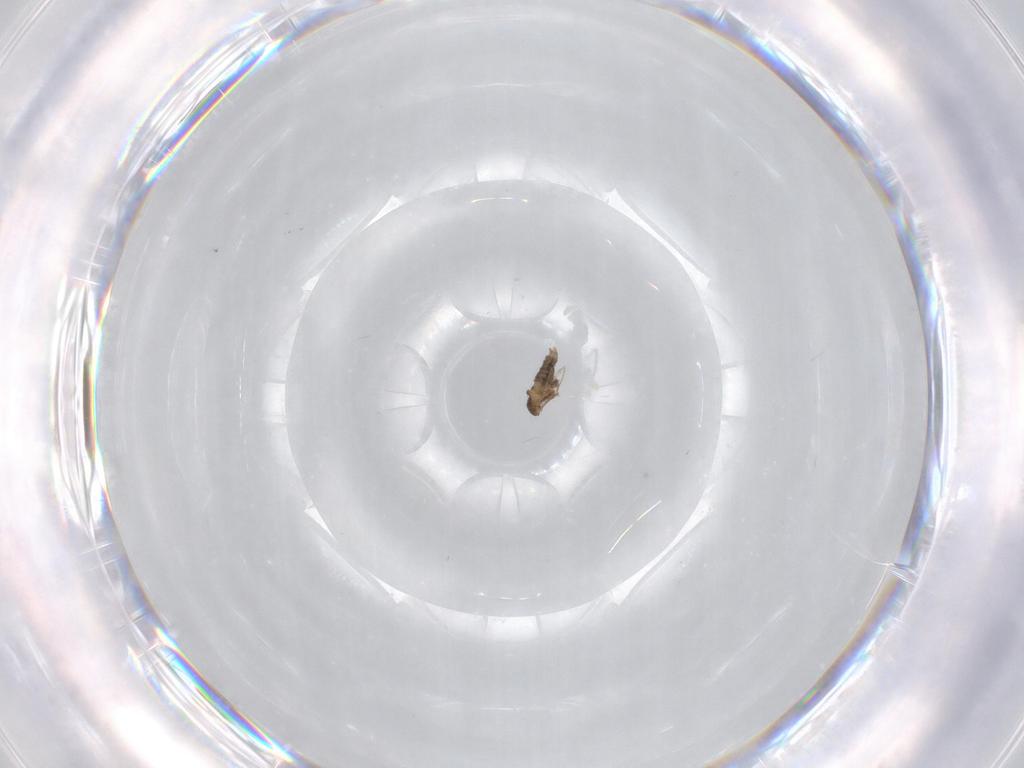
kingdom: Animalia
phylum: Arthropoda
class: Insecta
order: Diptera
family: Cecidomyiidae
